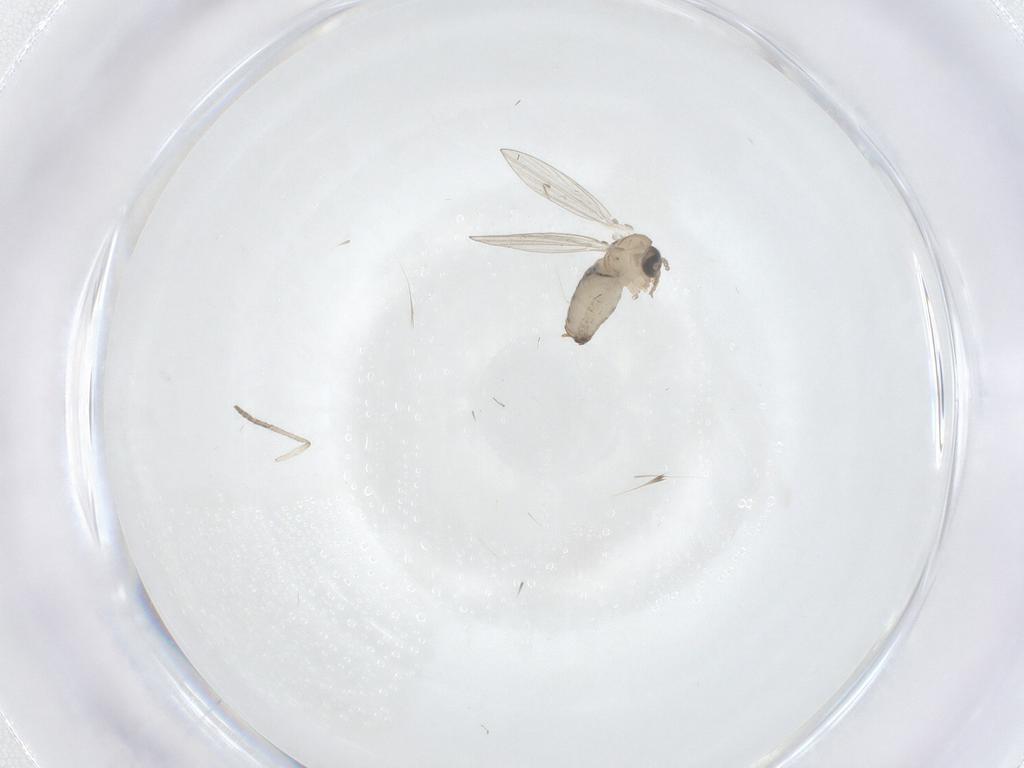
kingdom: Animalia
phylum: Arthropoda
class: Insecta
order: Diptera
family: Psychodidae
